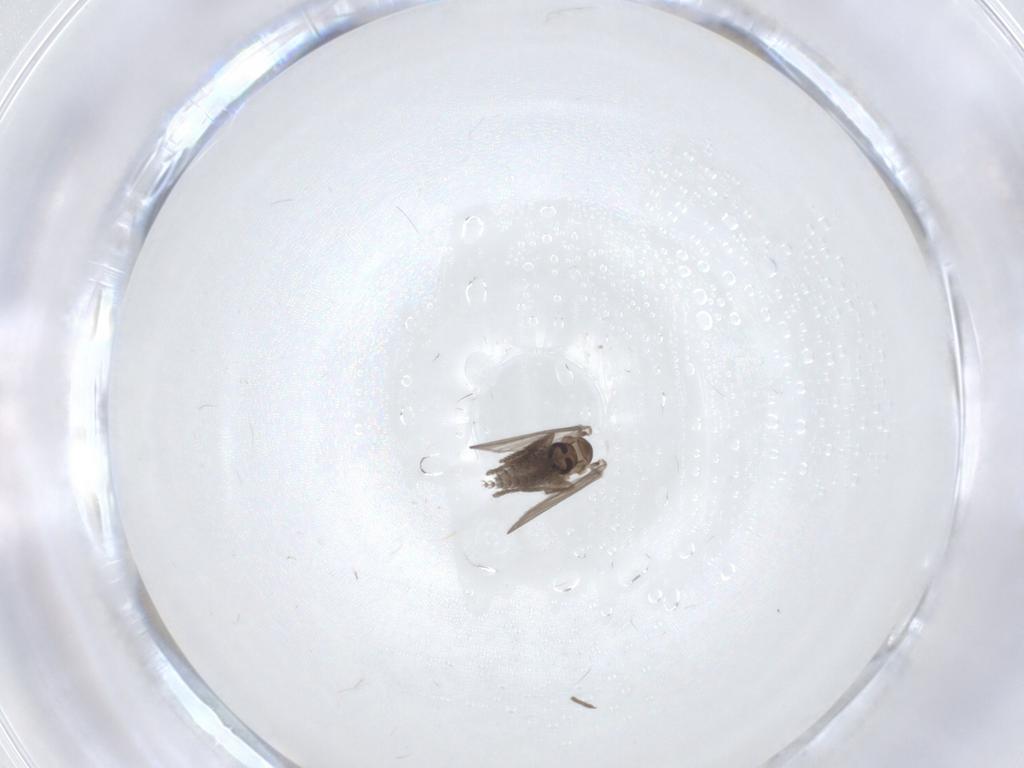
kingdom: Animalia
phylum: Arthropoda
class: Insecta
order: Diptera
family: Psychodidae
